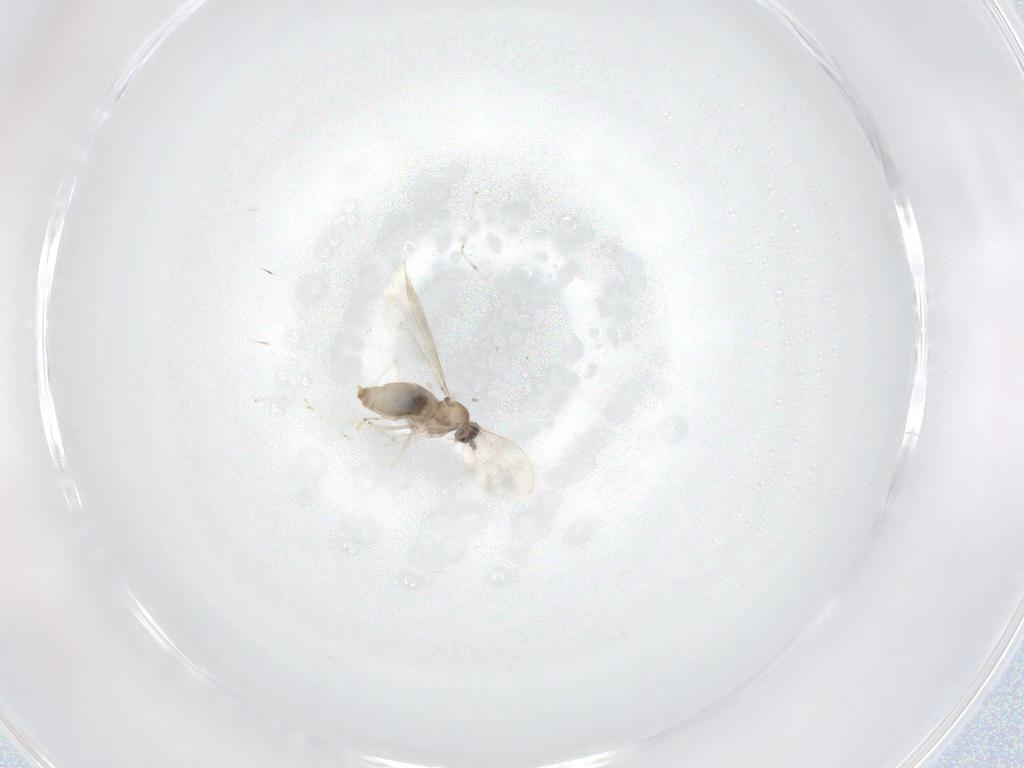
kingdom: Animalia
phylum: Arthropoda
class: Insecta
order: Diptera
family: Cecidomyiidae
